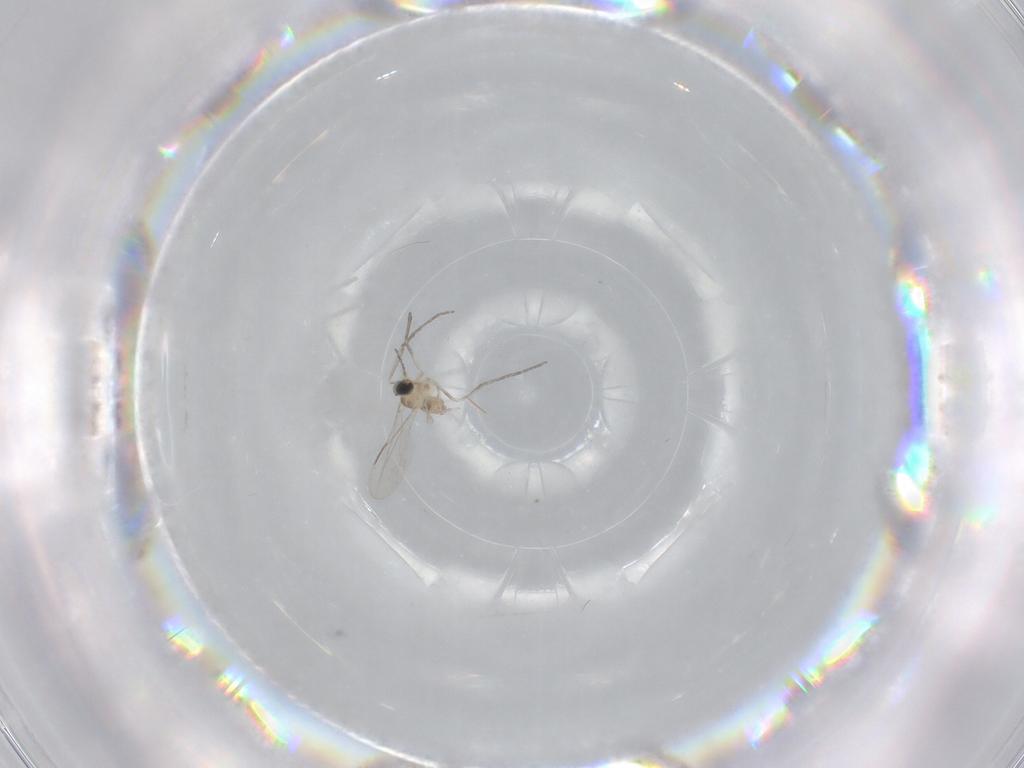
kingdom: Animalia
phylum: Arthropoda
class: Insecta
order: Diptera
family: Cecidomyiidae
